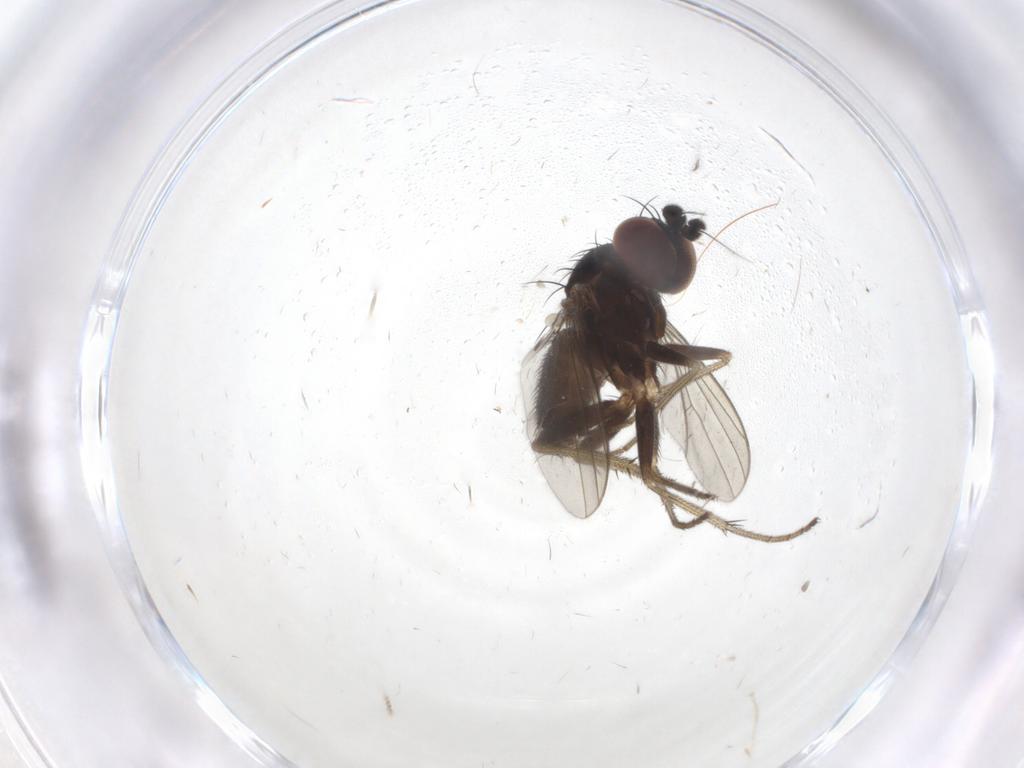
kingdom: Animalia
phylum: Arthropoda
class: Insecta
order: Diptera
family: Dolichopodidae
